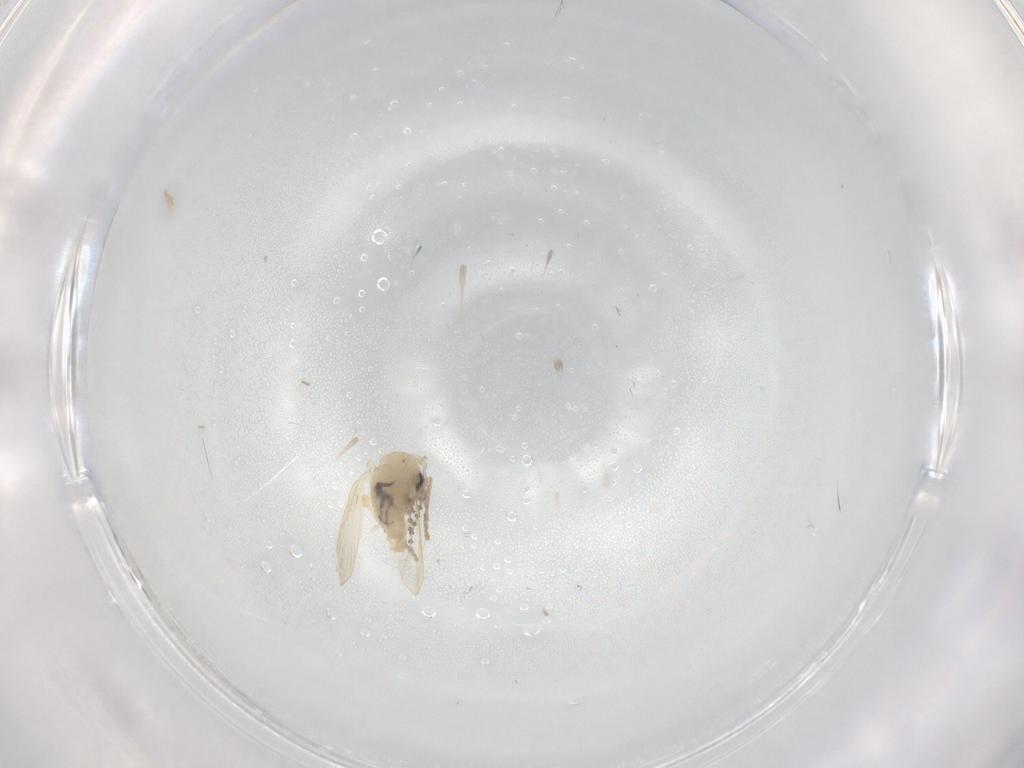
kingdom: Animalia
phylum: Arthropoda
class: Insecta
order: Diptera
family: Psychodidae
